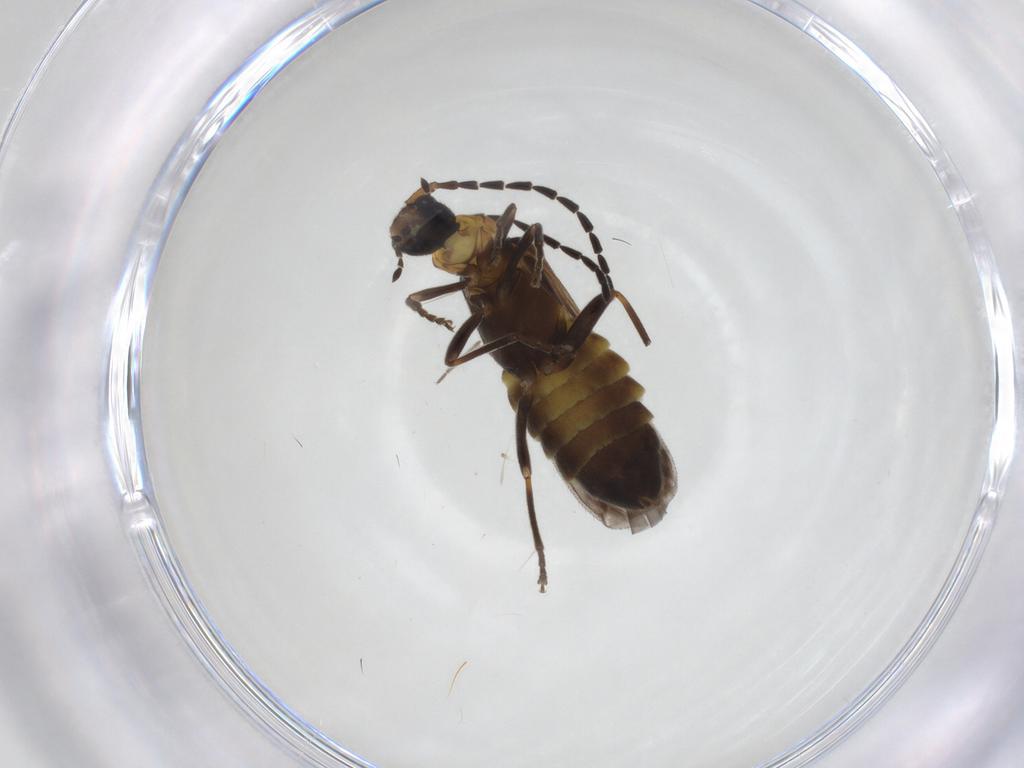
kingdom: Animalia
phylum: Arthropoda
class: Insecta
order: Coleoptera
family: Cantharidae
